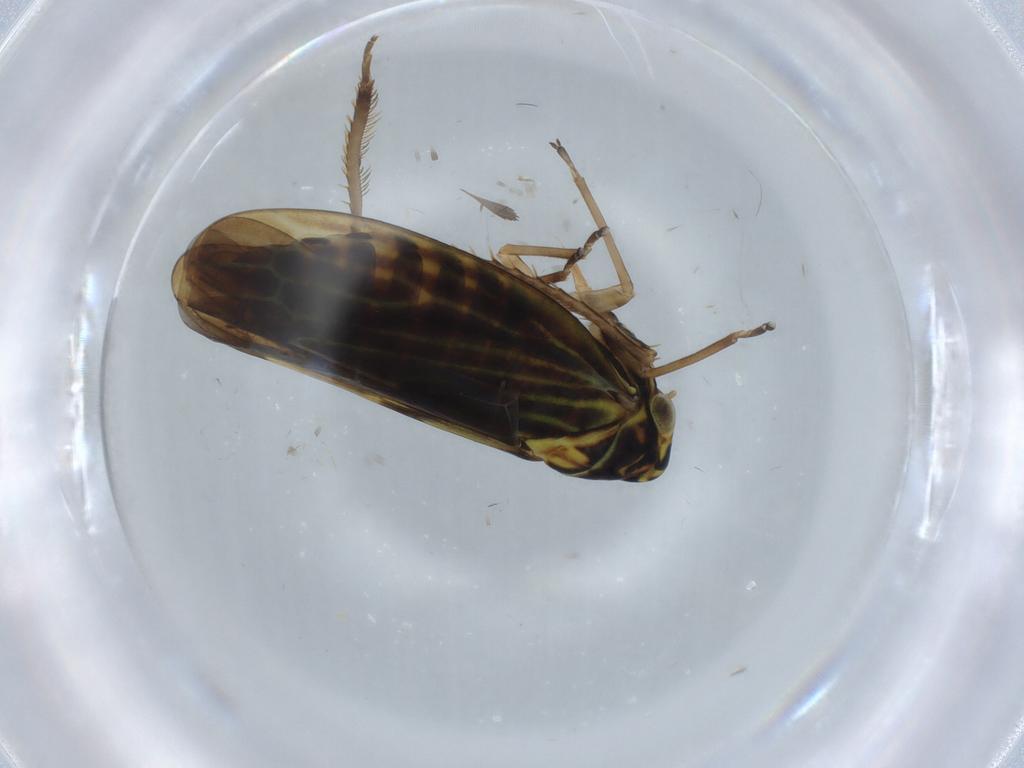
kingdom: Animalia
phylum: Arthropoda
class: Insecta
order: Hemiptera
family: Cicadellidae
